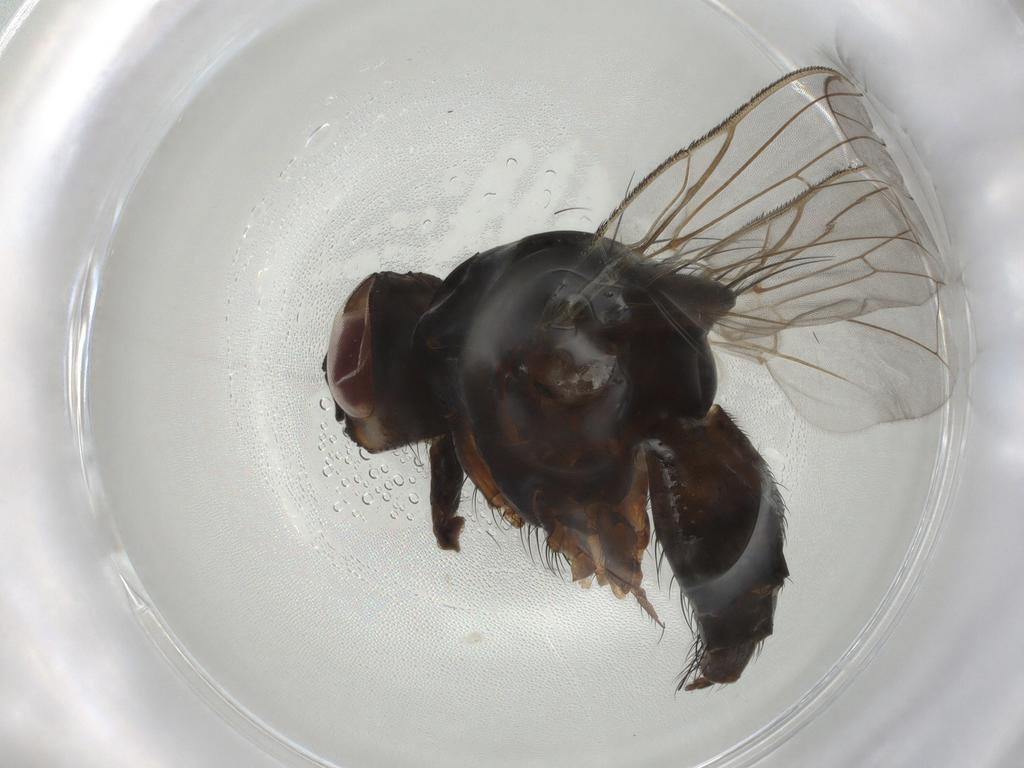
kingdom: Animalia
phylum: Arthropoda
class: Insecta
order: Diptera
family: Anthomyiidae
